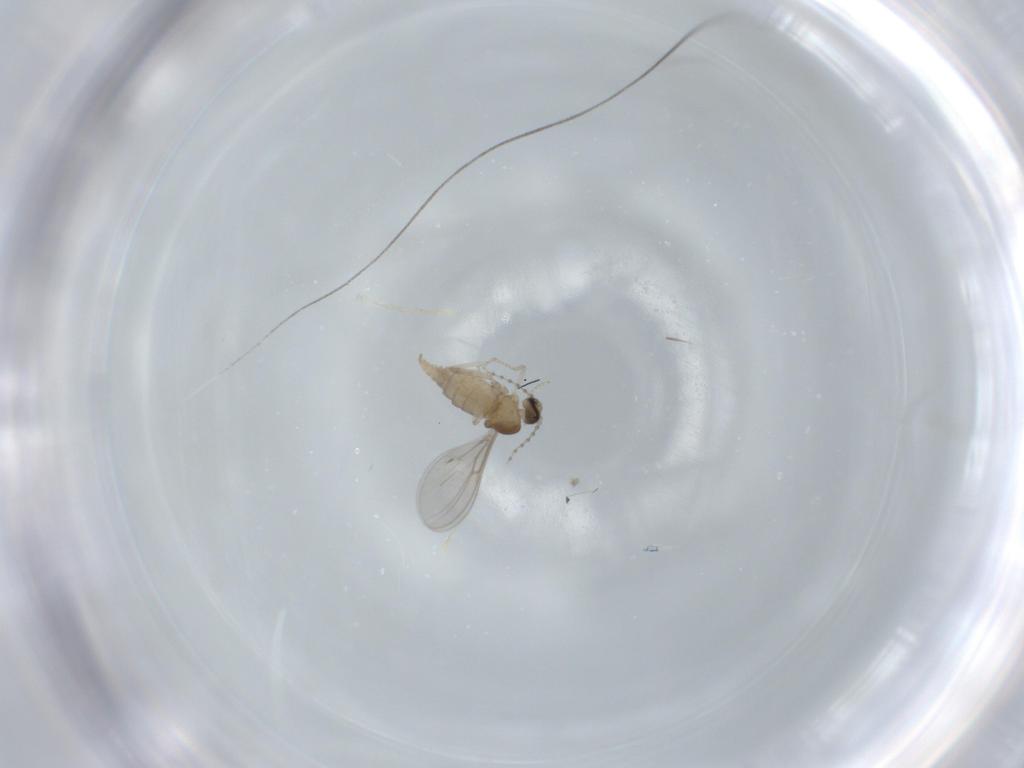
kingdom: Animalia
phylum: Arthropoda
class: Insecta
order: Diptera
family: Cecidomyiidae
